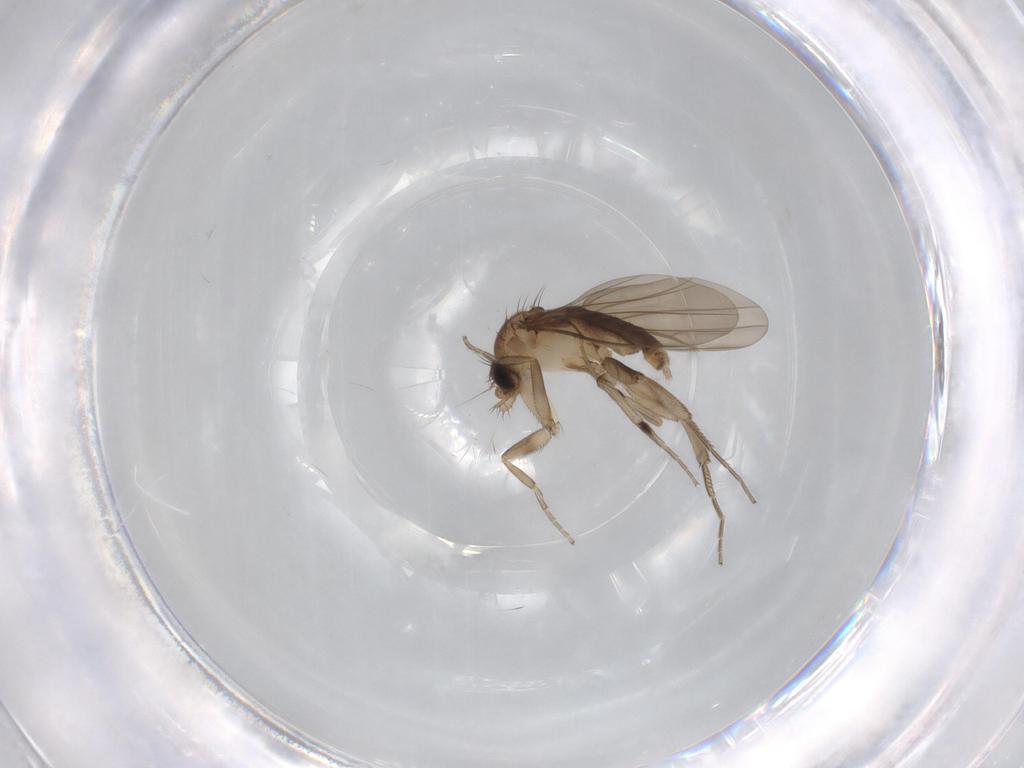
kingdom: Animalia
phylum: Arthropoda
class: Insecta
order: Diptera
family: Phoridae
